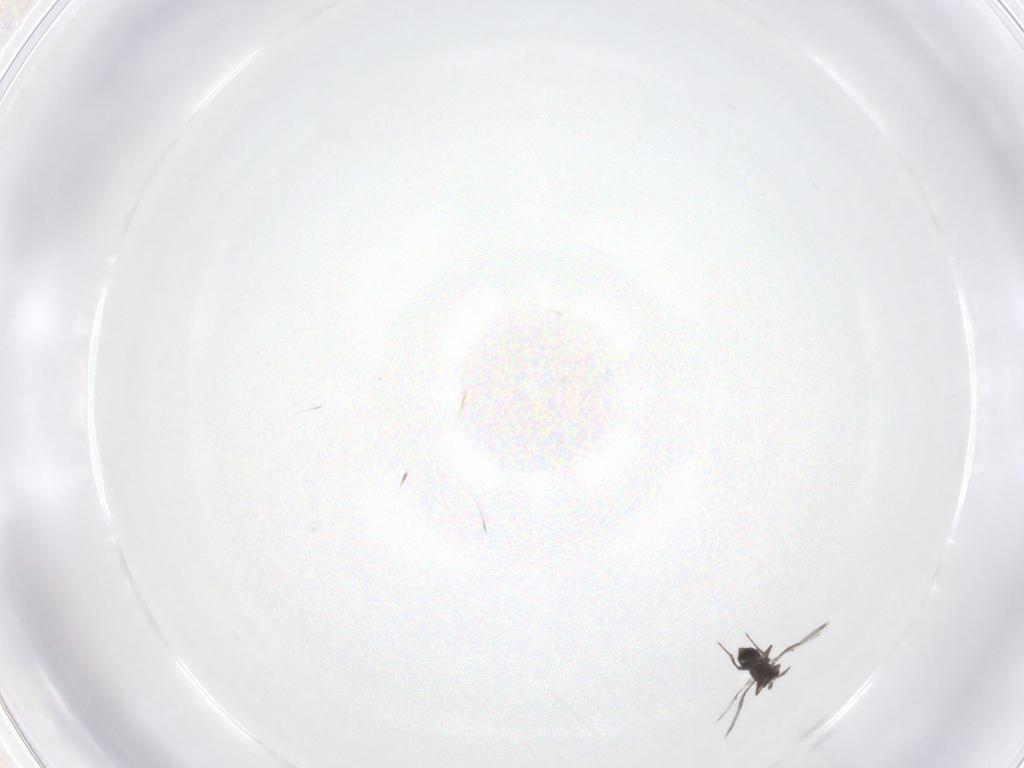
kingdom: Animalia
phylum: Arthropoda
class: Insecta
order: Hymenoptera
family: Trichogrammatidae
